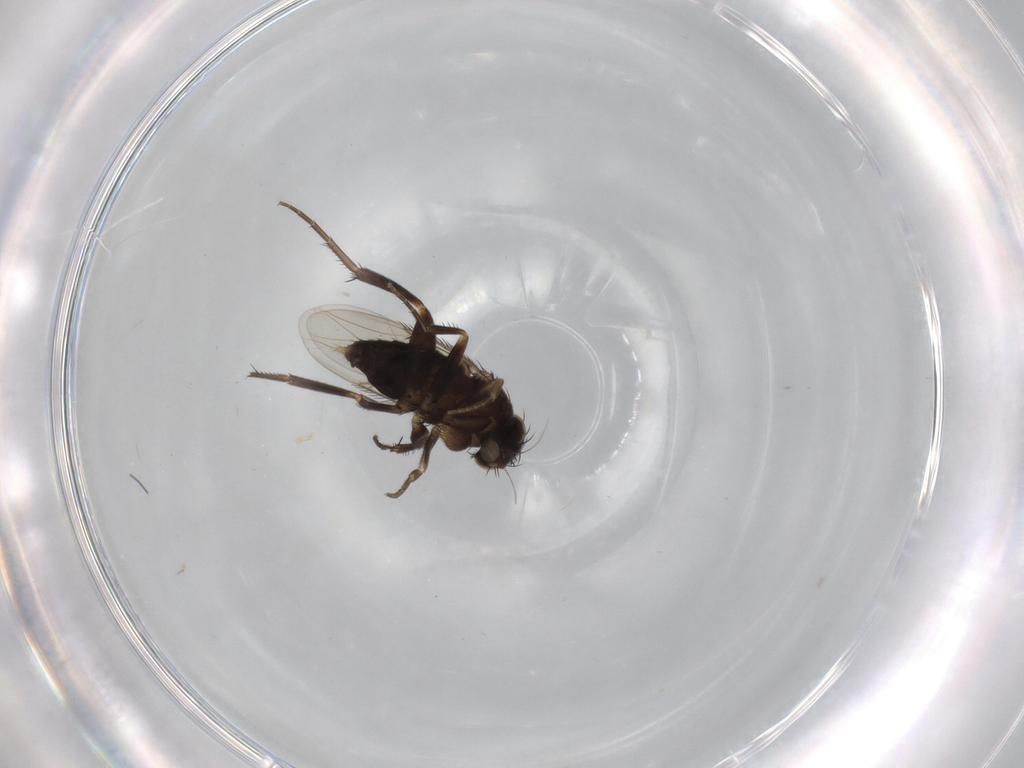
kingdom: Animalia
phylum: Arthropoda
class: Insecta
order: Diptera
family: Phoridae
